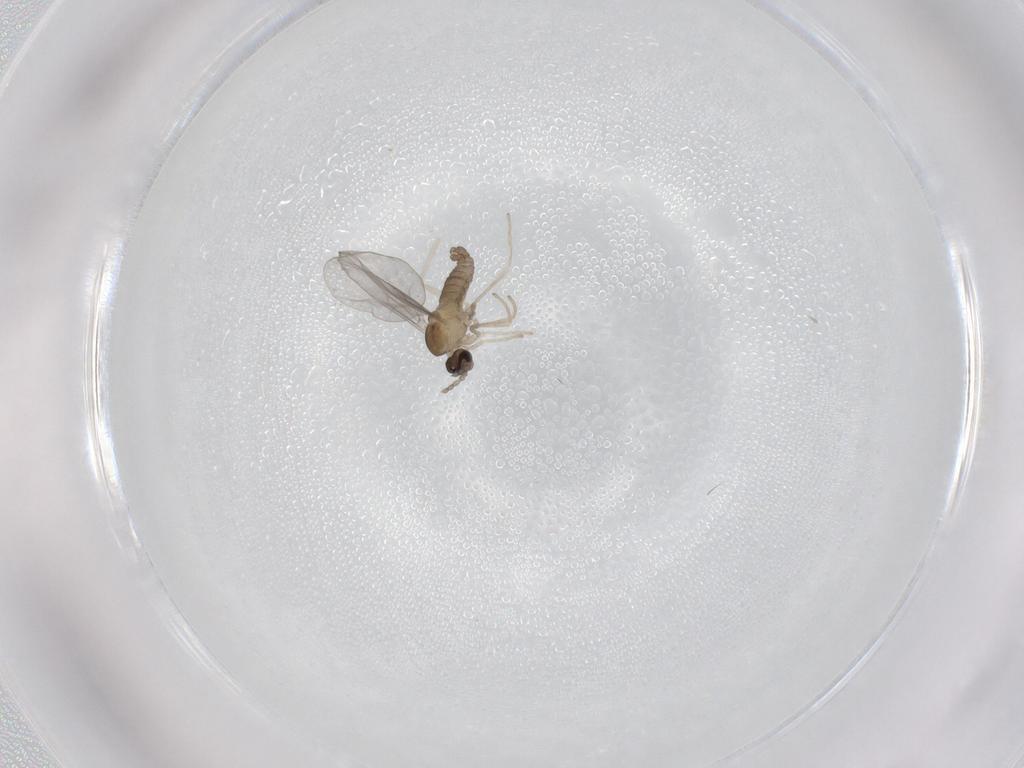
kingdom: Animalia
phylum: Arthropoda
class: Insecta
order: Diptera
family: Cecidomyiidae
